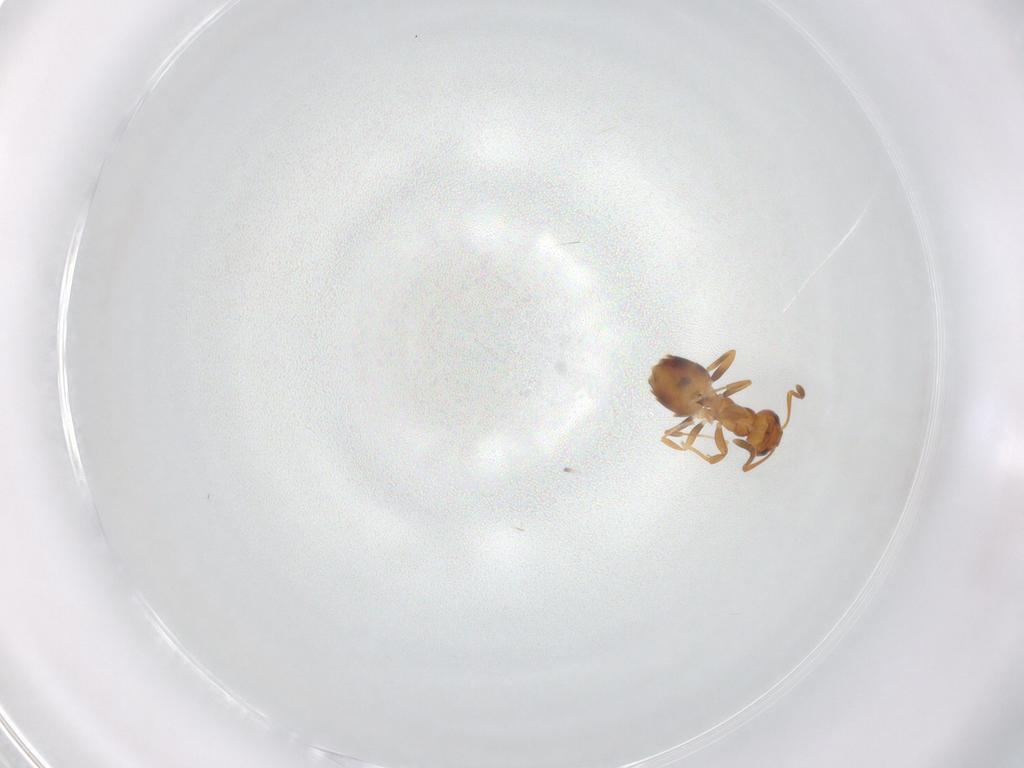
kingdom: Animalia
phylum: Arthropoda
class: Insecta
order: Hymenoptera
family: Formicidae
